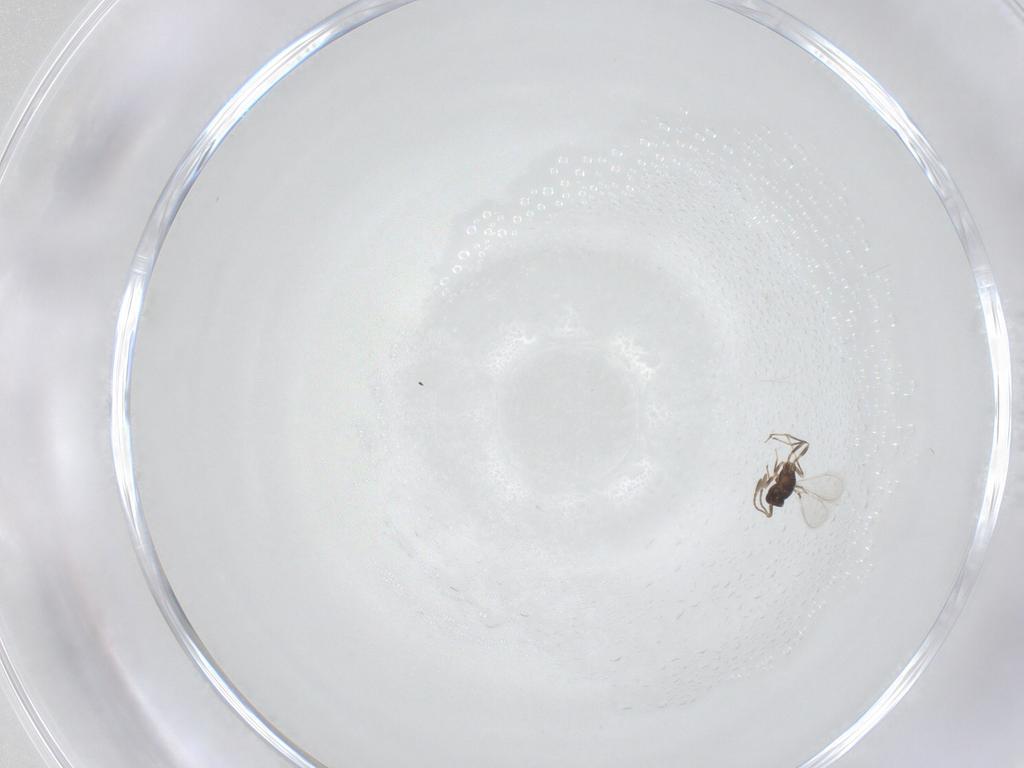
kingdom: Animalia
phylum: Arthropoda
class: Insecta
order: Hymenoptera
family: Mymaridae
